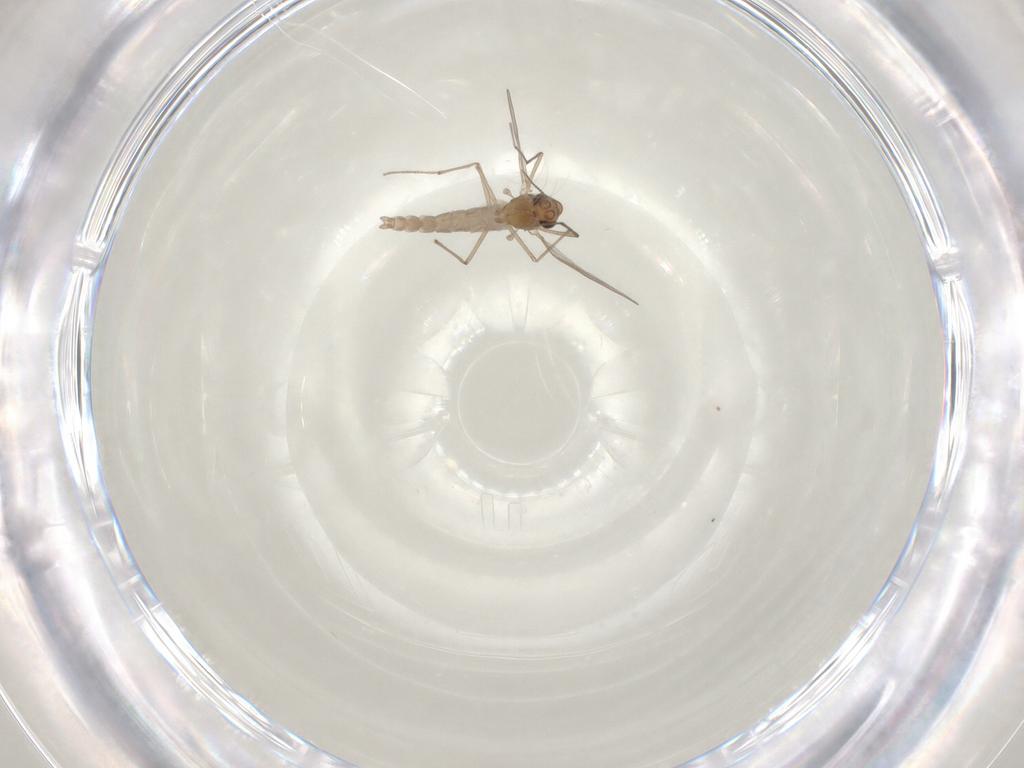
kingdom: Animalia
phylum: Arthropoda
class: Insecta
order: Diptera
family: Chironomidae
